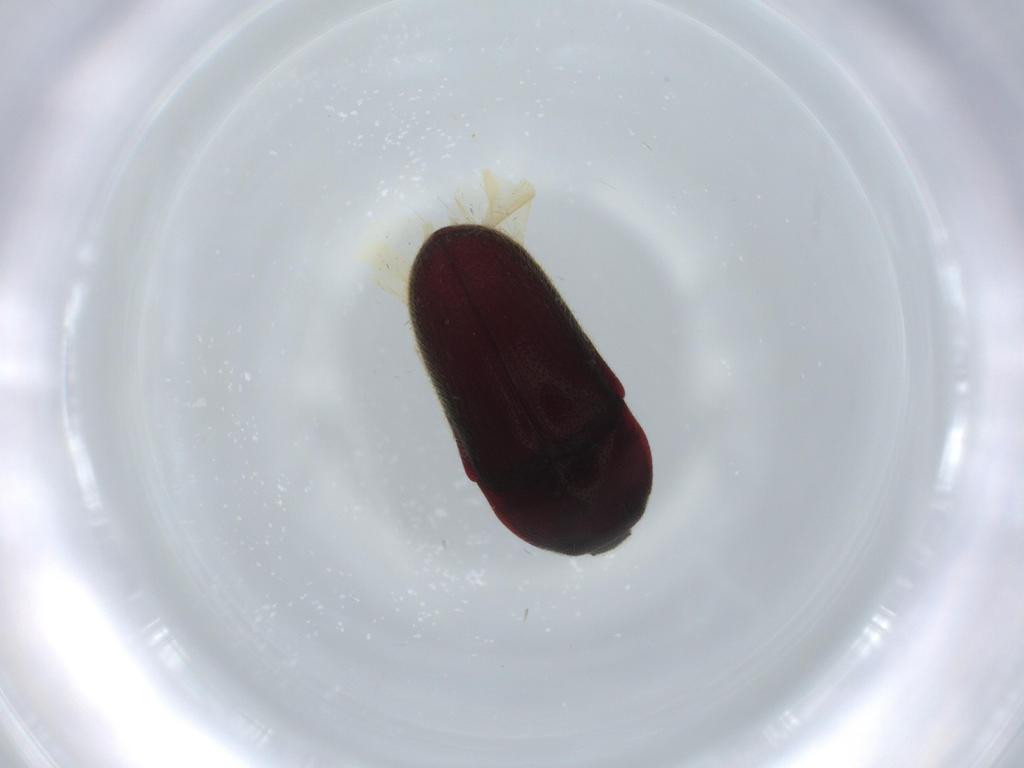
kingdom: Animalia
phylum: Arthropoda
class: Insecta
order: Coleoptera
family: Throscidae
